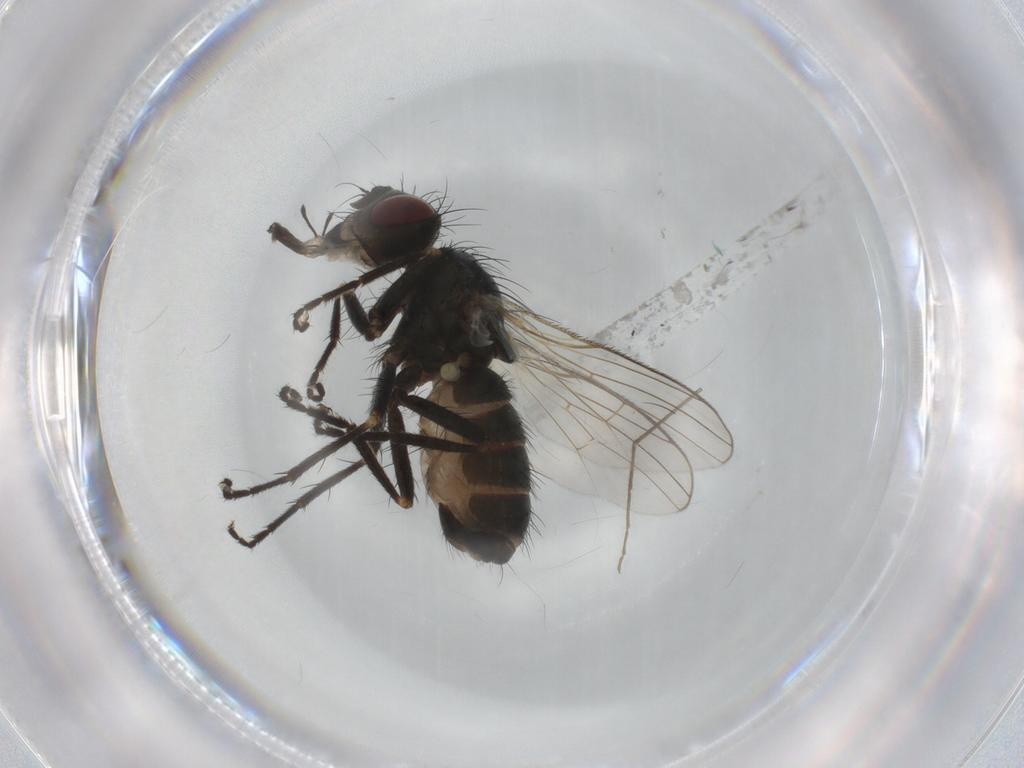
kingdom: Animalia
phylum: Arthropoda
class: Insecta
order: Diptera
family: Muscidae
